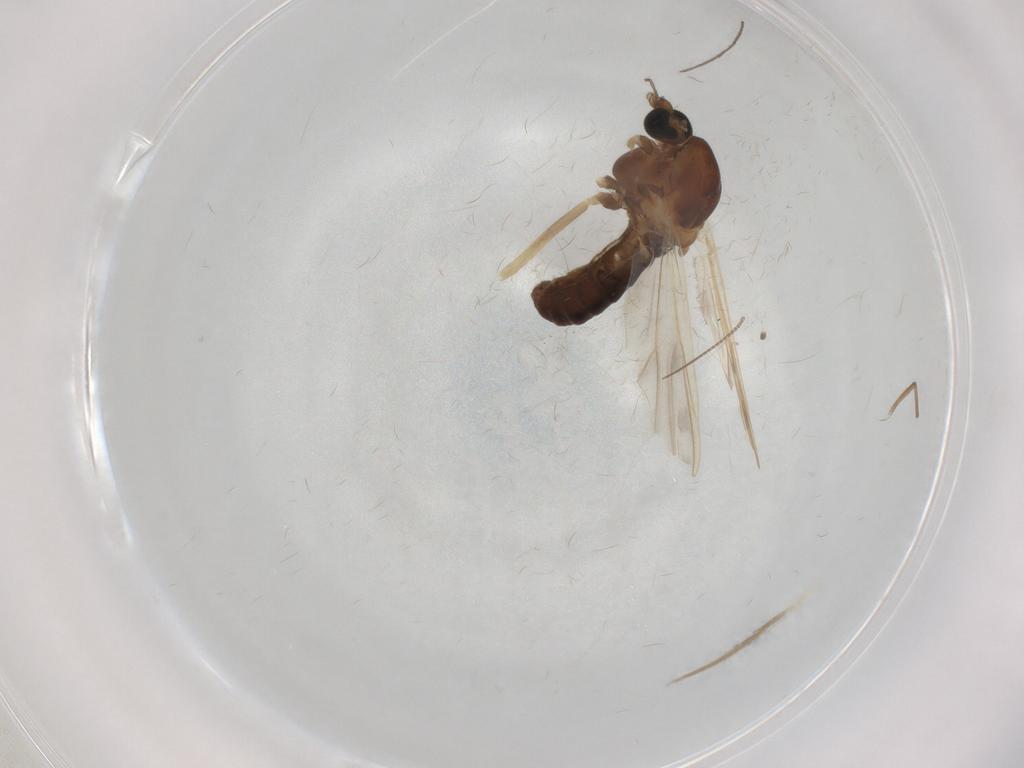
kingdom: Animalia
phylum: Arthropoda
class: Insecta
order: Diptera
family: Chironomidae
